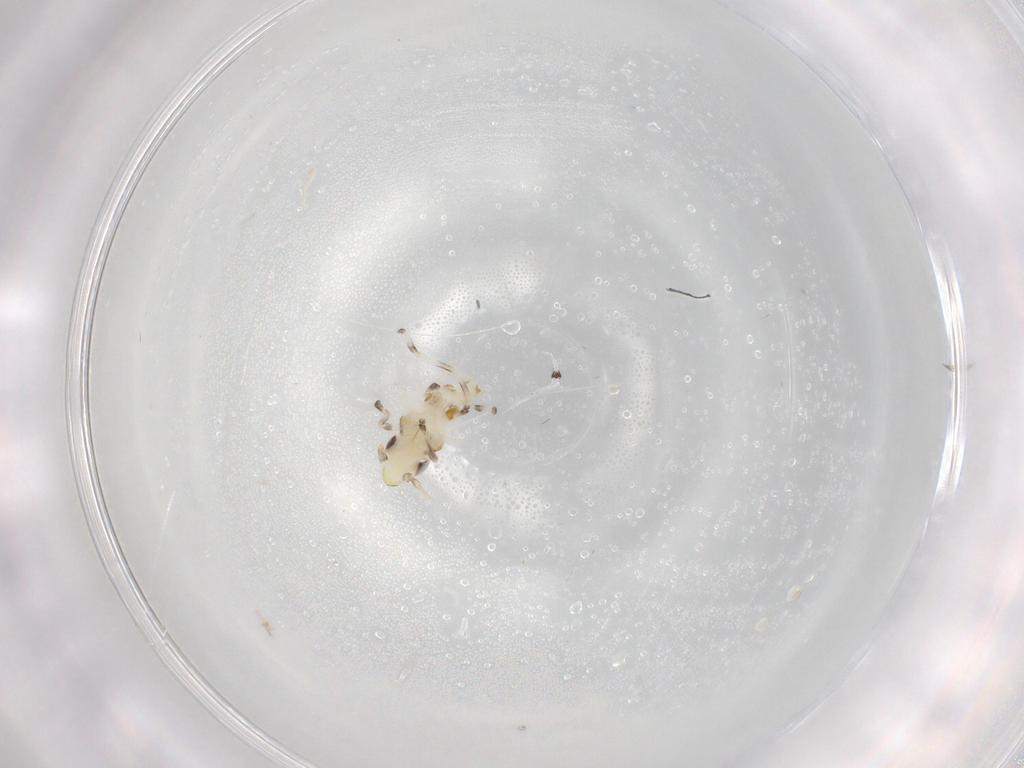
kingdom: Animalia
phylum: Arthropoda
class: Insecta
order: Hemiptera
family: Cicadellidae
